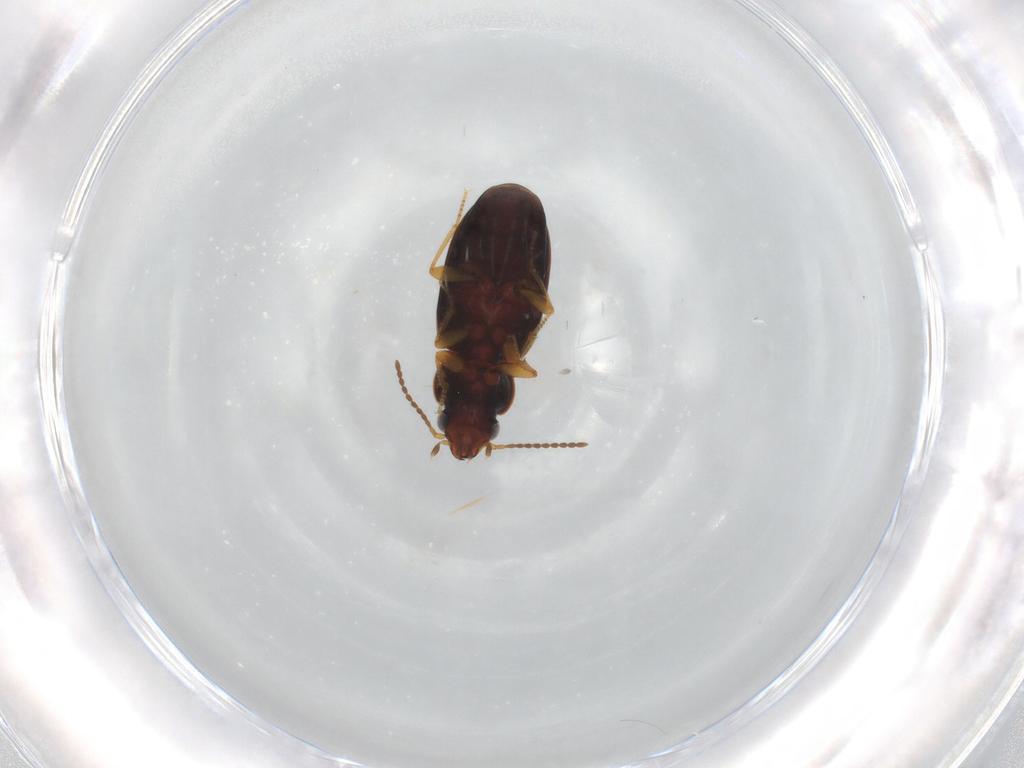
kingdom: Animalia
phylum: Arthropoda
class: Insecta
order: Coleoptera
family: Carabidae
